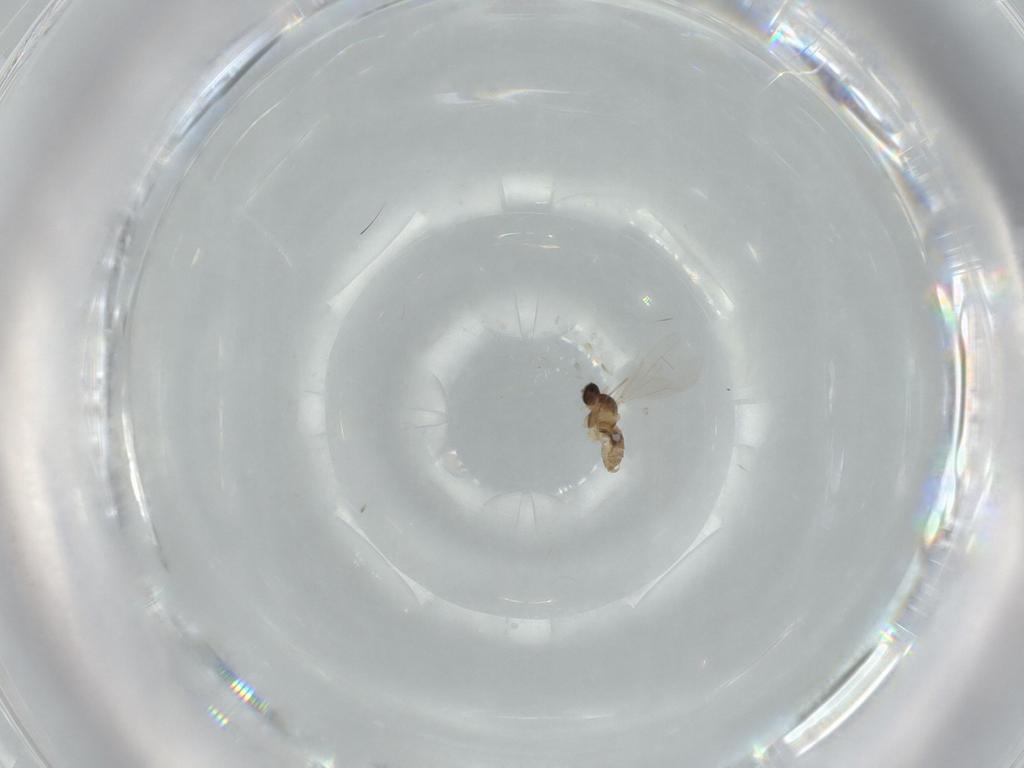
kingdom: Animalia
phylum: Arthropoda
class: Insecta
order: Diptera
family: Cecidomyiidae
